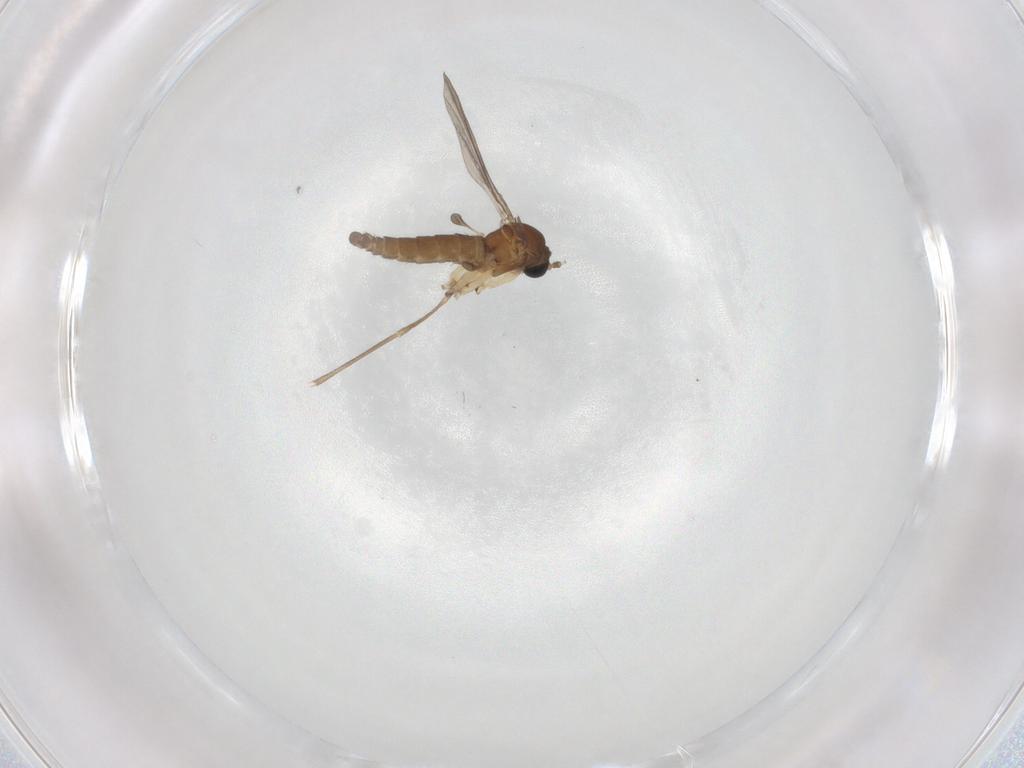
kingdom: Animalia
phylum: Arthropoda
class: Insecta
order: Diptera
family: Sciaridae
